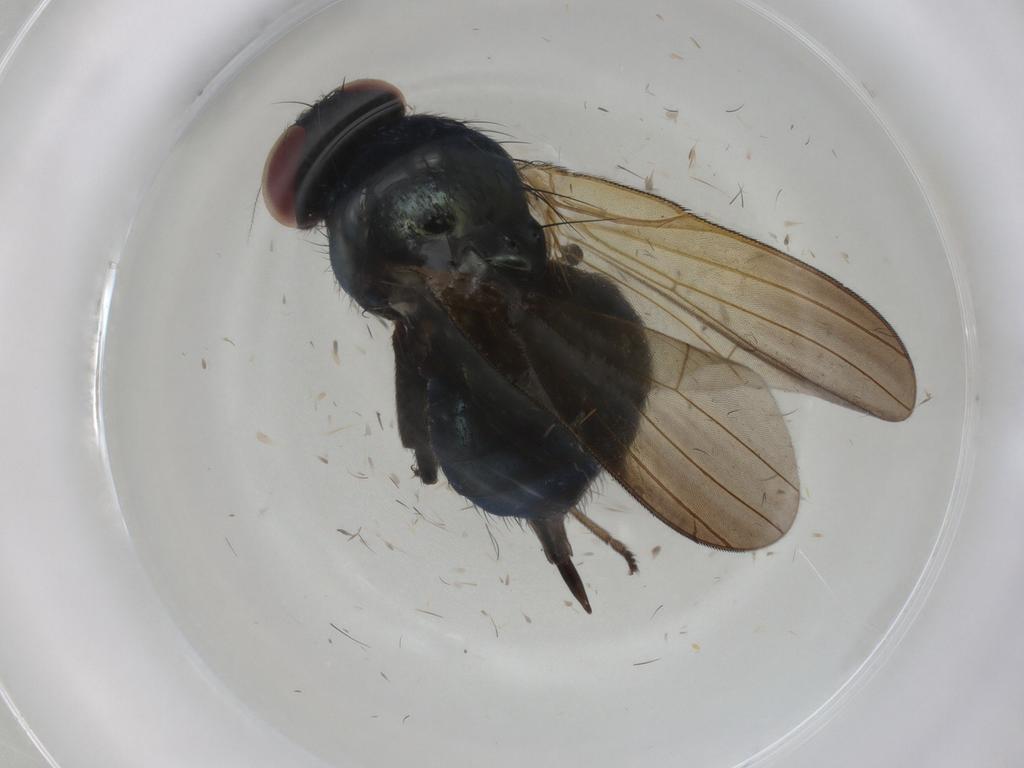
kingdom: Animalia
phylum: Arthropoda
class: Insecta
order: Diptera
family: Lonchaeidae
